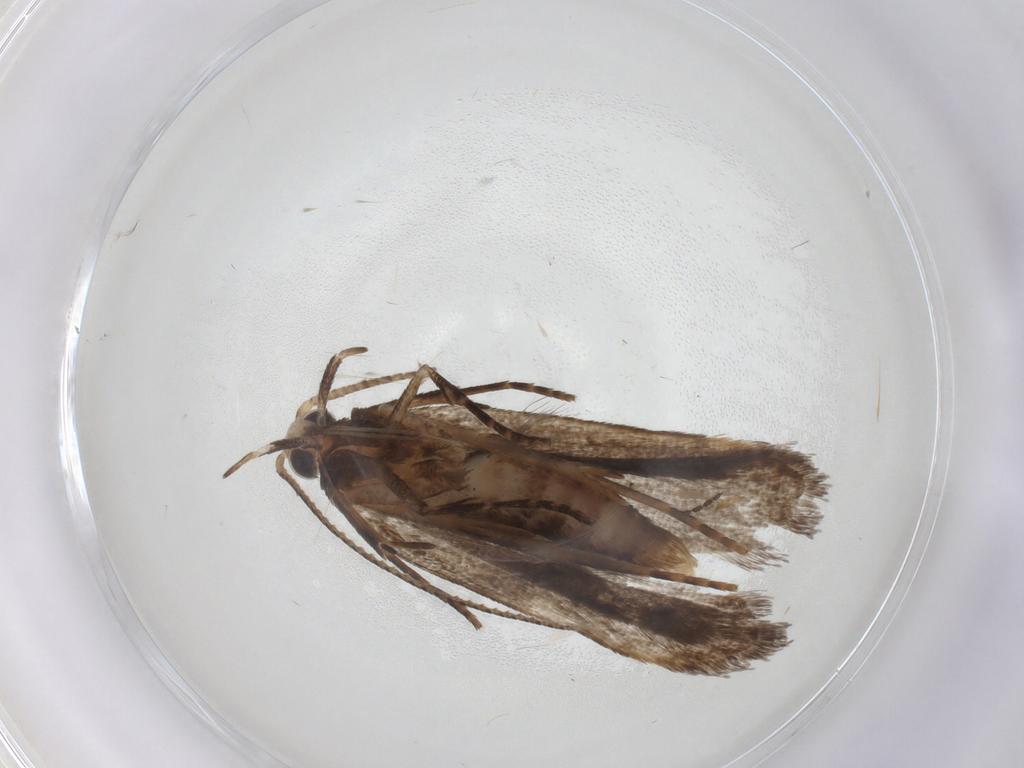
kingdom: Animalia
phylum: Arthropoda
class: Insecta
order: Lepidoptera
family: Gelechiidae
